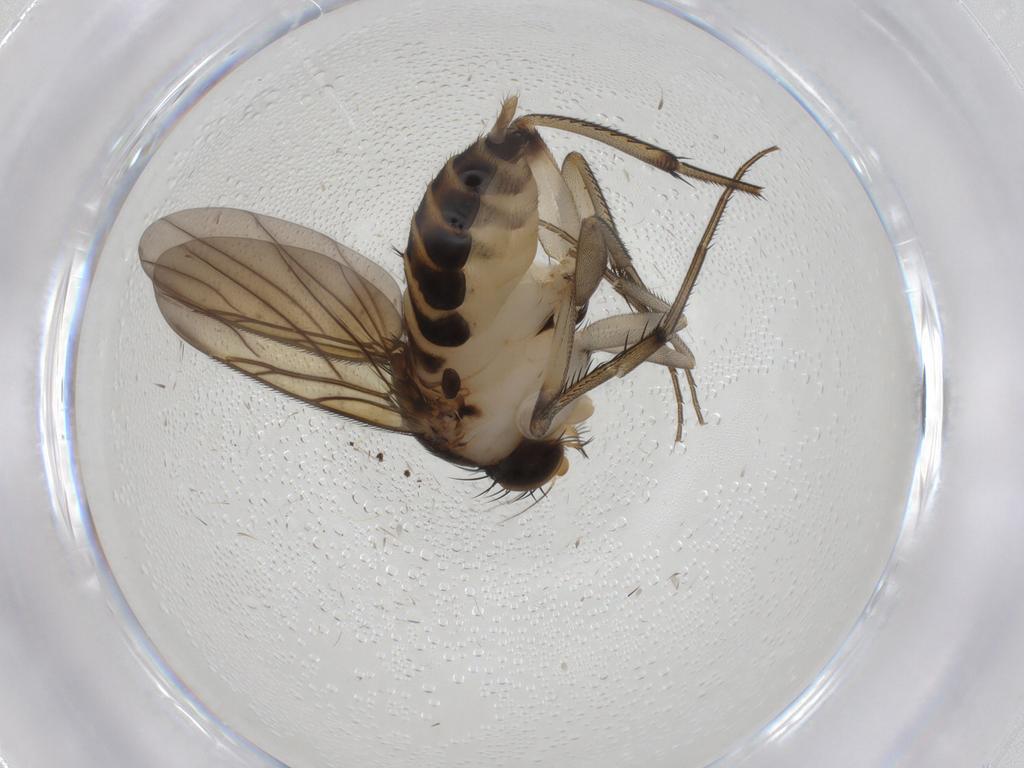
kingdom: Animalia
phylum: Arthropoda
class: Insecta
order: Diptera
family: Phoridae
